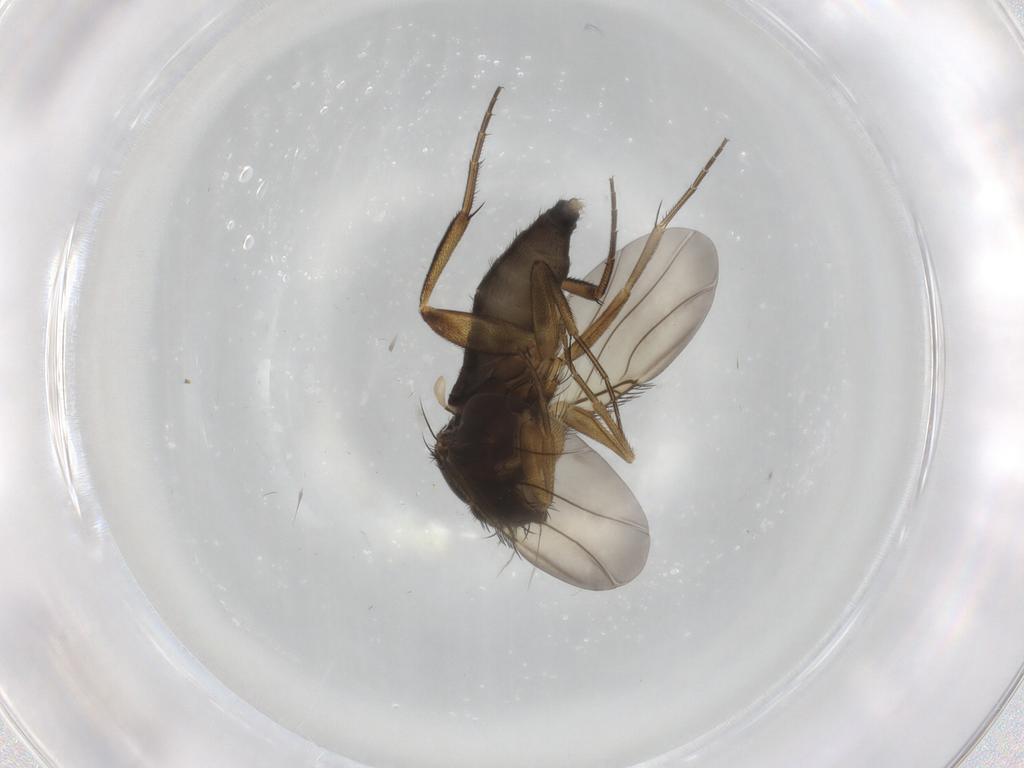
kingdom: Animalia
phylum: Arthropoda
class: Insecta
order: Diptera
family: Phoridae
